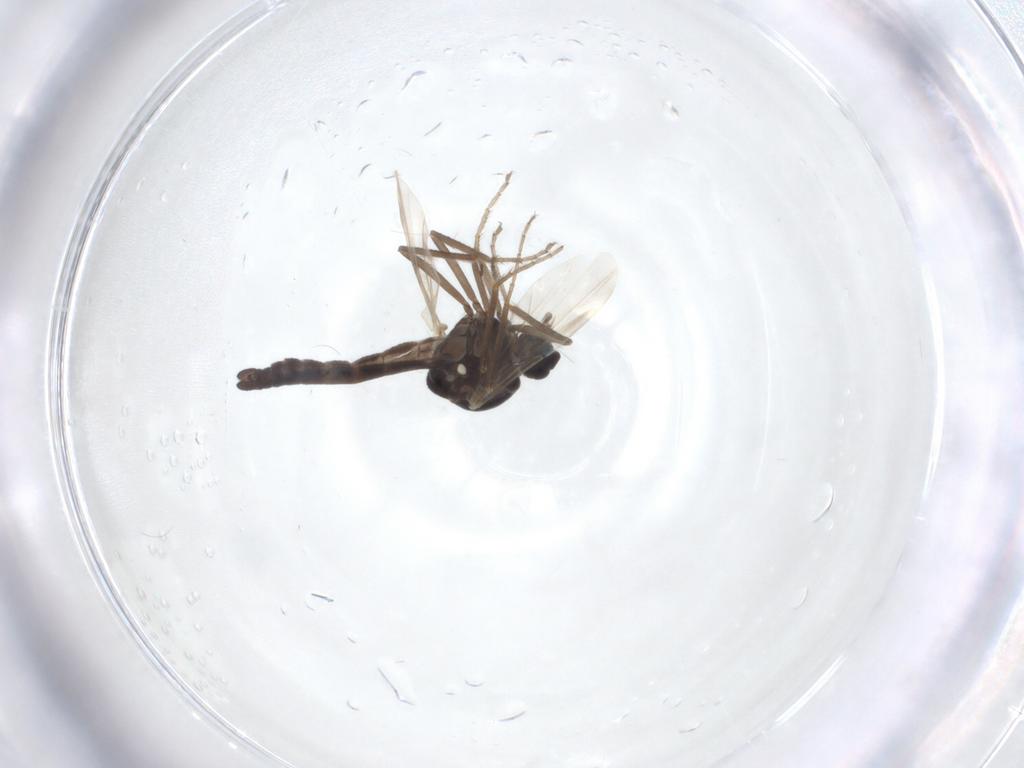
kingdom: Animalia
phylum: Arthropoda
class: Insecta
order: Diptera
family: Ceratopogonidae
